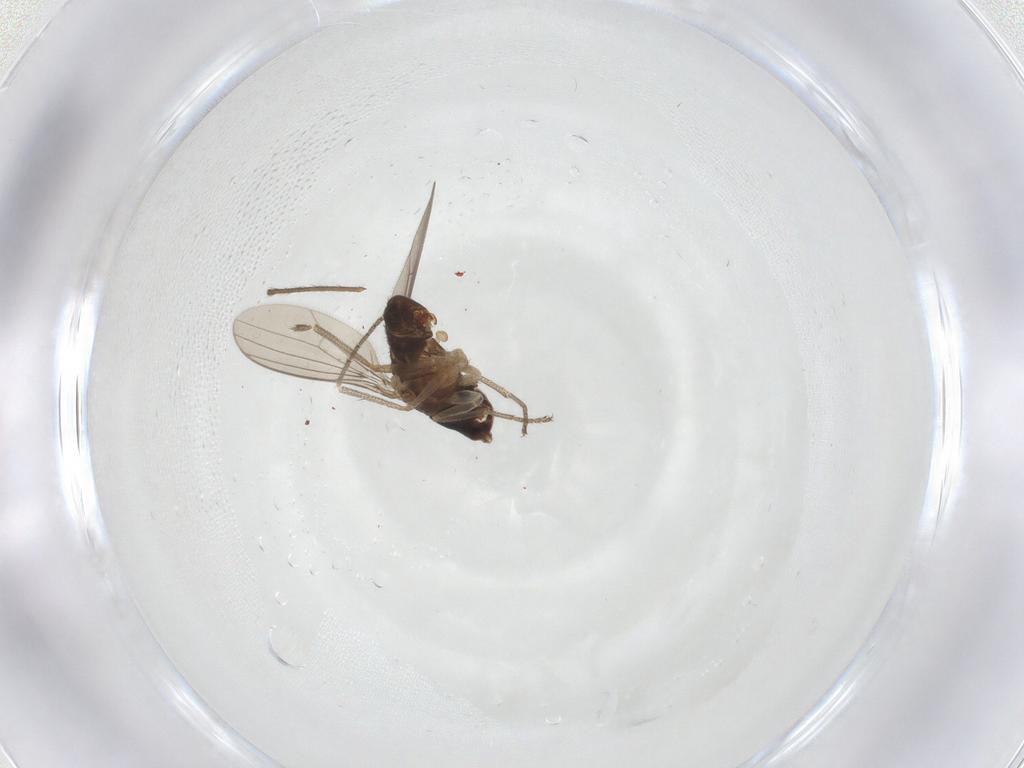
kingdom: Animalia
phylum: Arthropoda
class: Insecta
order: Diptera
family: Dolichopodidae
